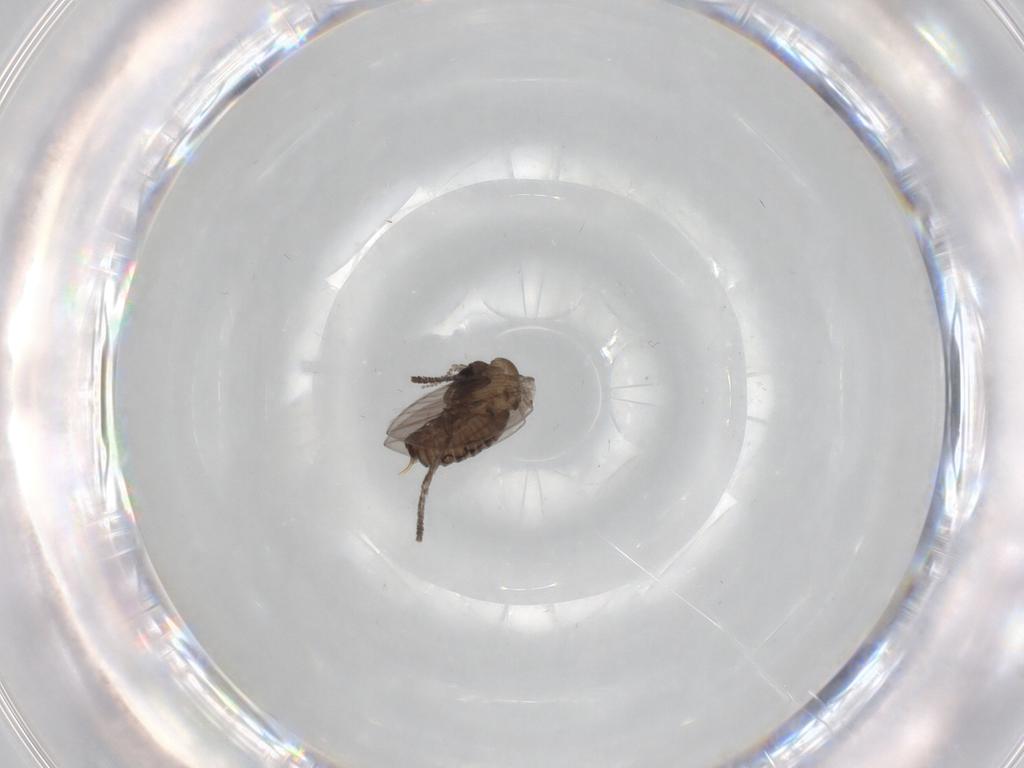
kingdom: Animalia
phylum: Arthropoda
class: Insecta
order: Diptera
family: Psychodidae
